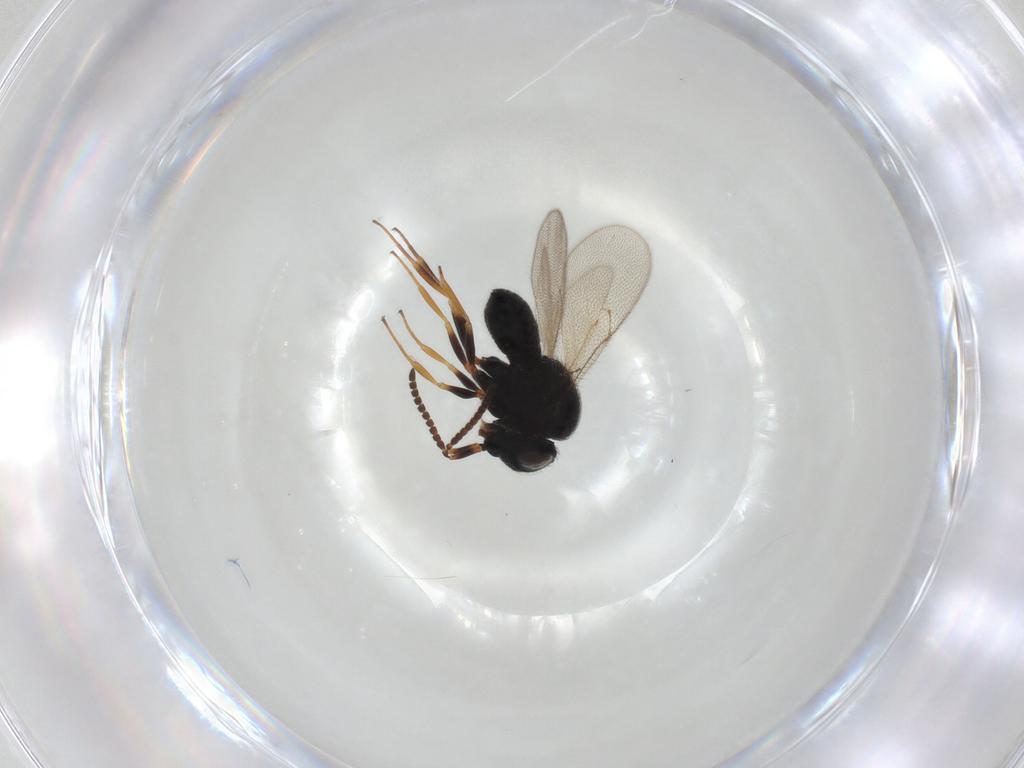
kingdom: Animalia
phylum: Arthropoda
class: Insecta
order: Hymenoptera
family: Scelionidae
